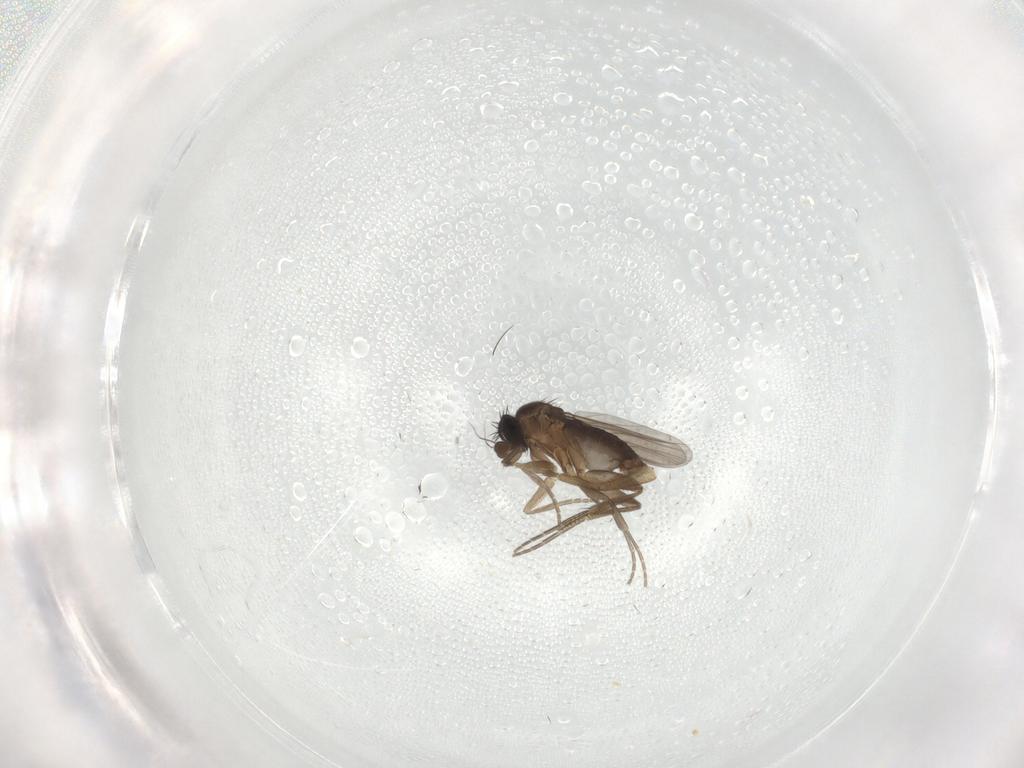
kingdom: Animalia
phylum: Arthropoda
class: Insecta
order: Diptera
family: Phoridae
